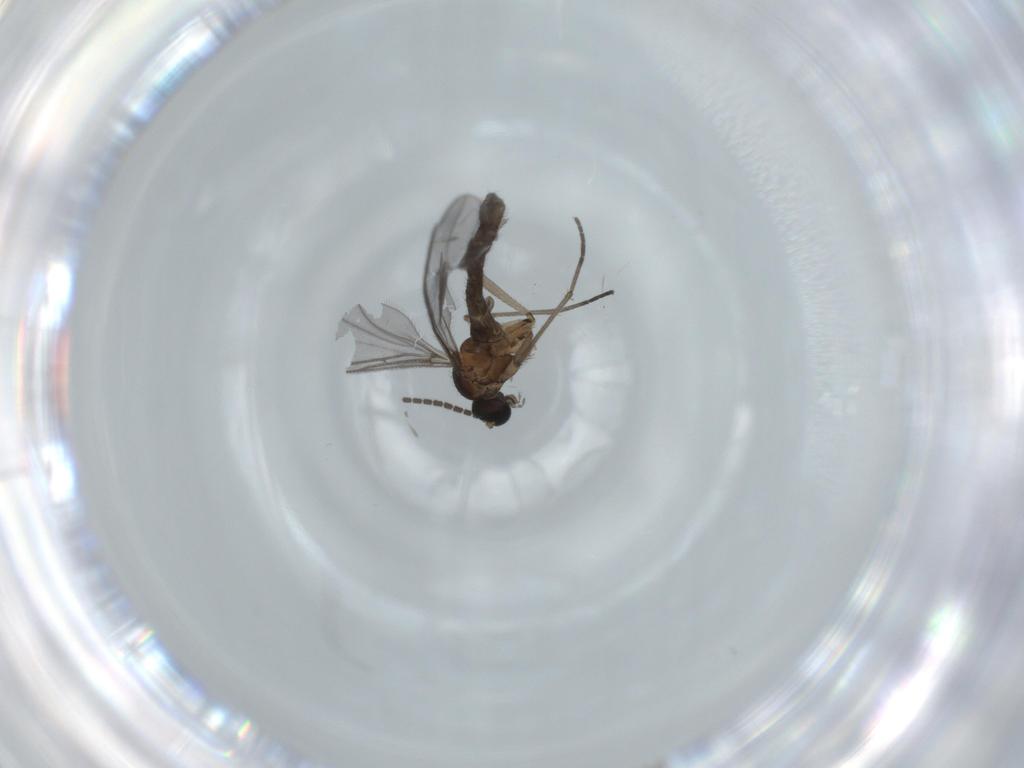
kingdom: Animalia
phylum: Arthropoda
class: Insecta
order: Diptera
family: Sciaridae
